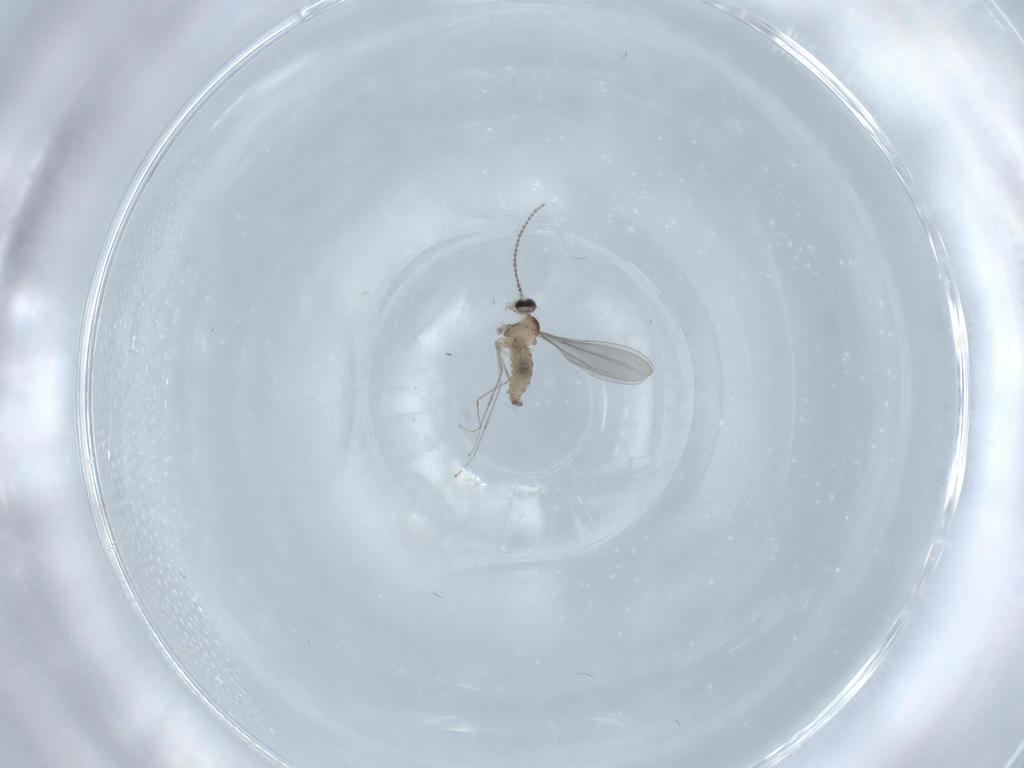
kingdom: Animalia
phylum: Arthropoda
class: Insecta
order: Diptera
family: Cecidomyiidae
